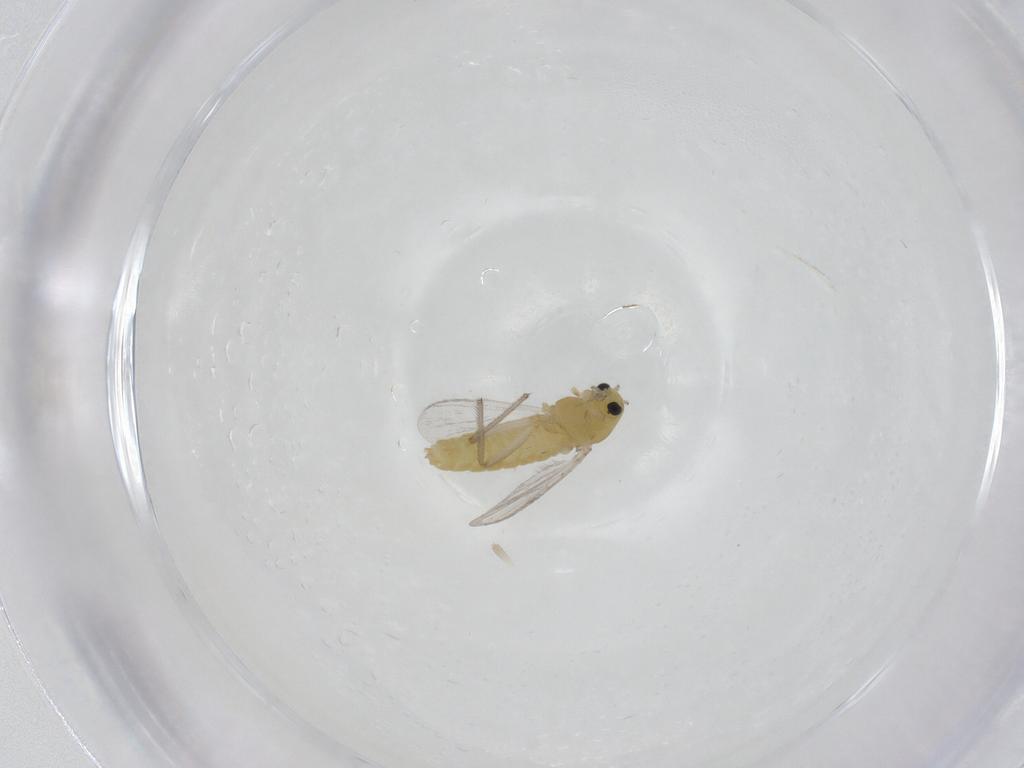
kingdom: Animalia
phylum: Arthropoda
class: Insecta
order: Diptera
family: Chironomidae
